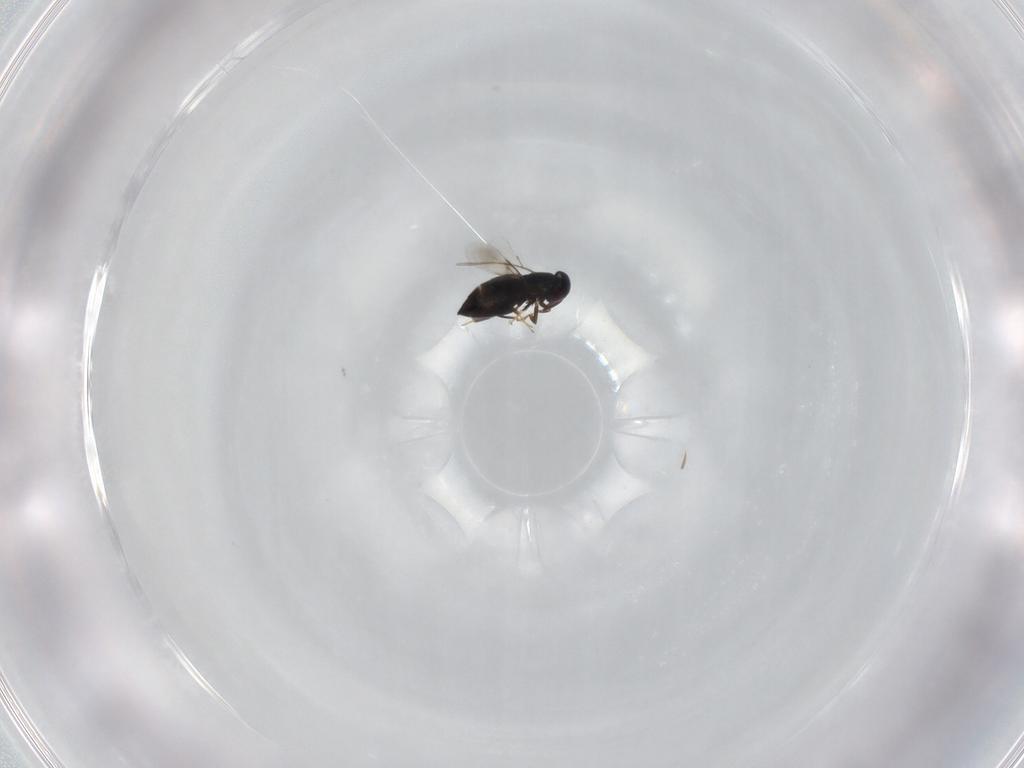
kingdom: Animalia
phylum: Arthropoda
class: Insecta
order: Hymenoptera
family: Signiphoridae
